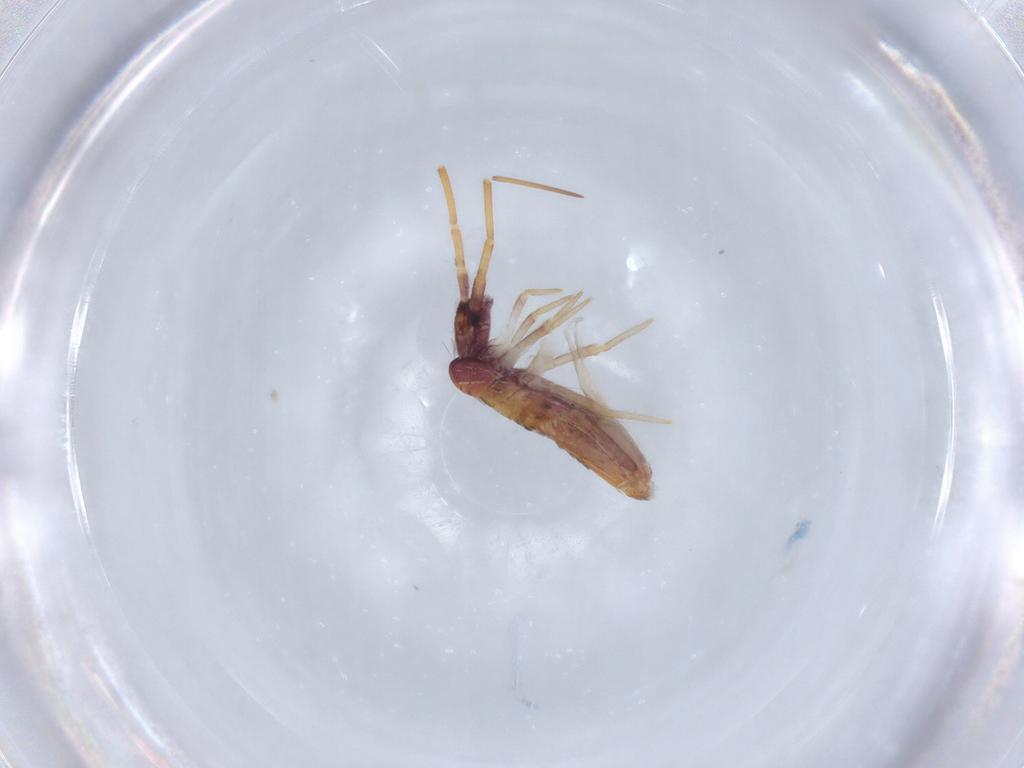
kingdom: Animalia
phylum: Arthropoda
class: Collembola
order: Entomobryomorpha
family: Entomobryidae
